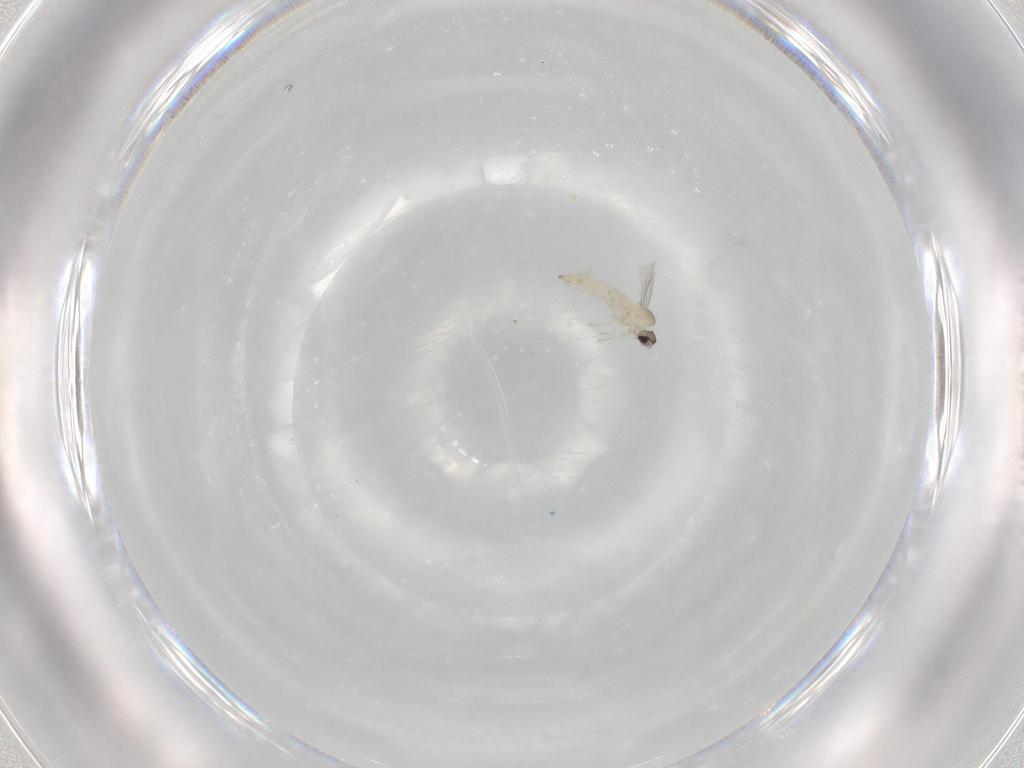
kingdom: Animalia
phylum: Arthropoda
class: Insecta
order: Diptera
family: Cecidomyiidae
